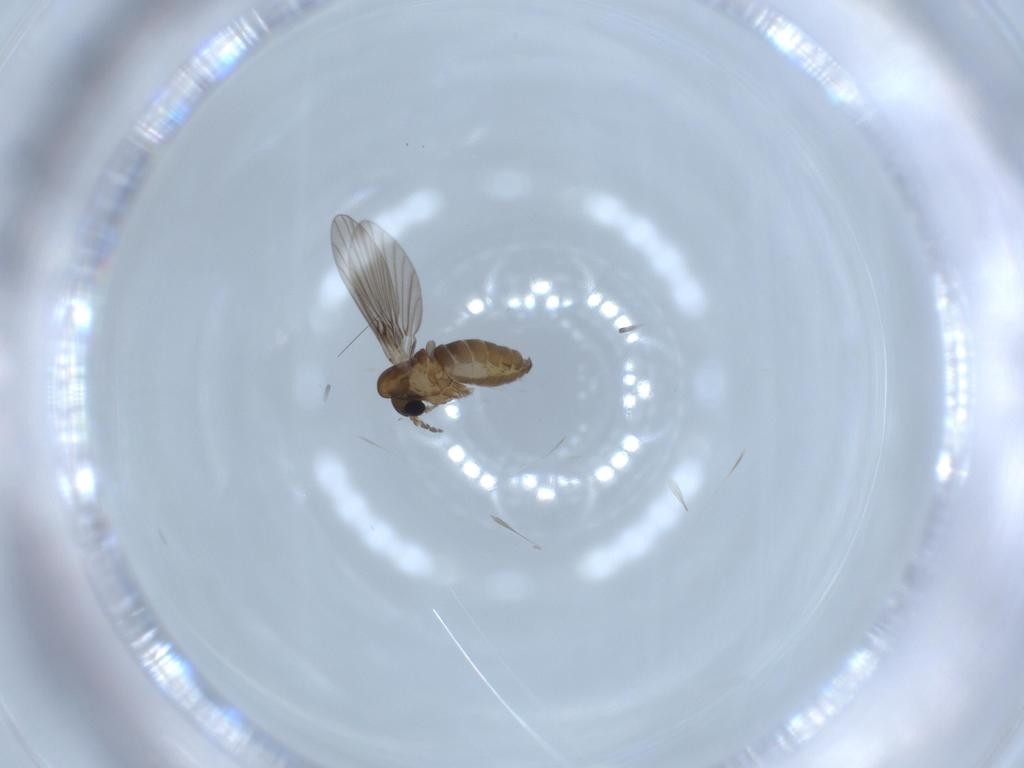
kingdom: Animalia
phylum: Arthropoda
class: Insecta
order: Diptera
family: Psychodidae
